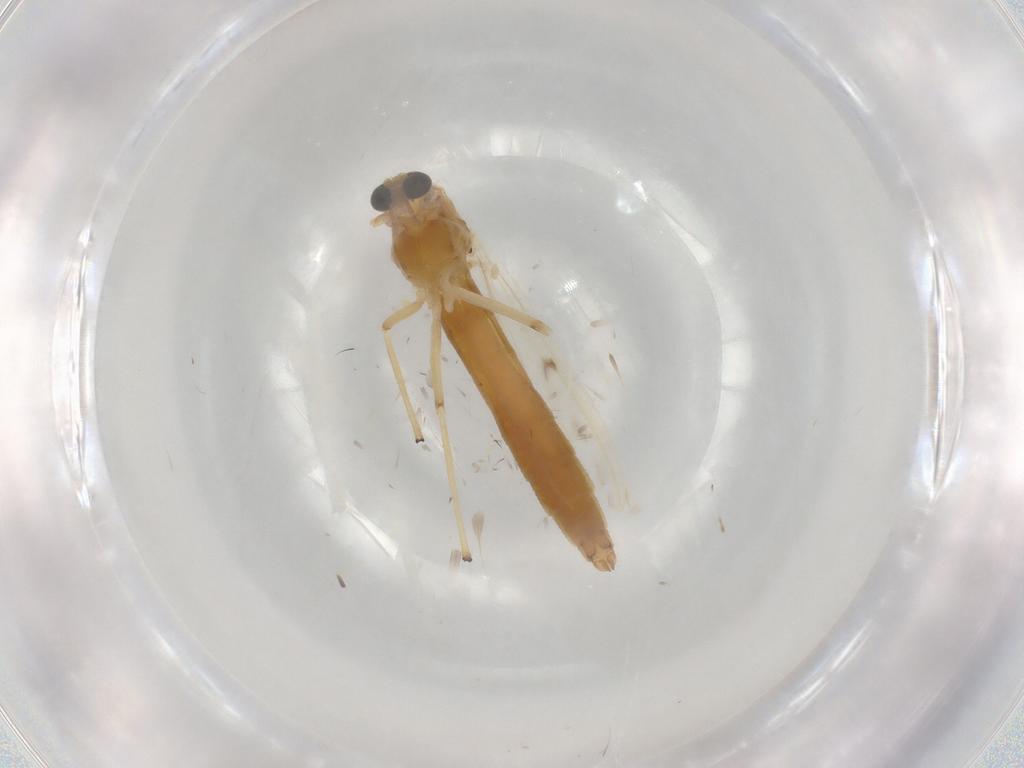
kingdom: Animalia
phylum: Arthropoda
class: Insecta
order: Diptera
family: Chironomidae
